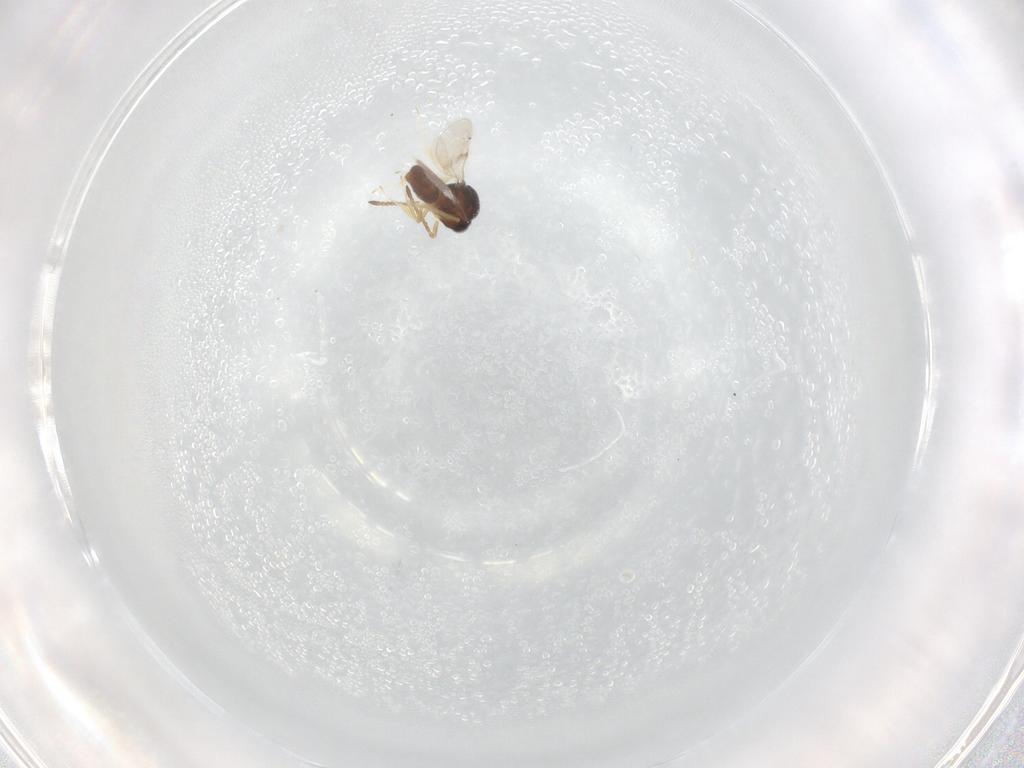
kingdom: Animalia
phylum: Arthropoda
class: Insecta
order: Hymenoptera
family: Scelionidae
